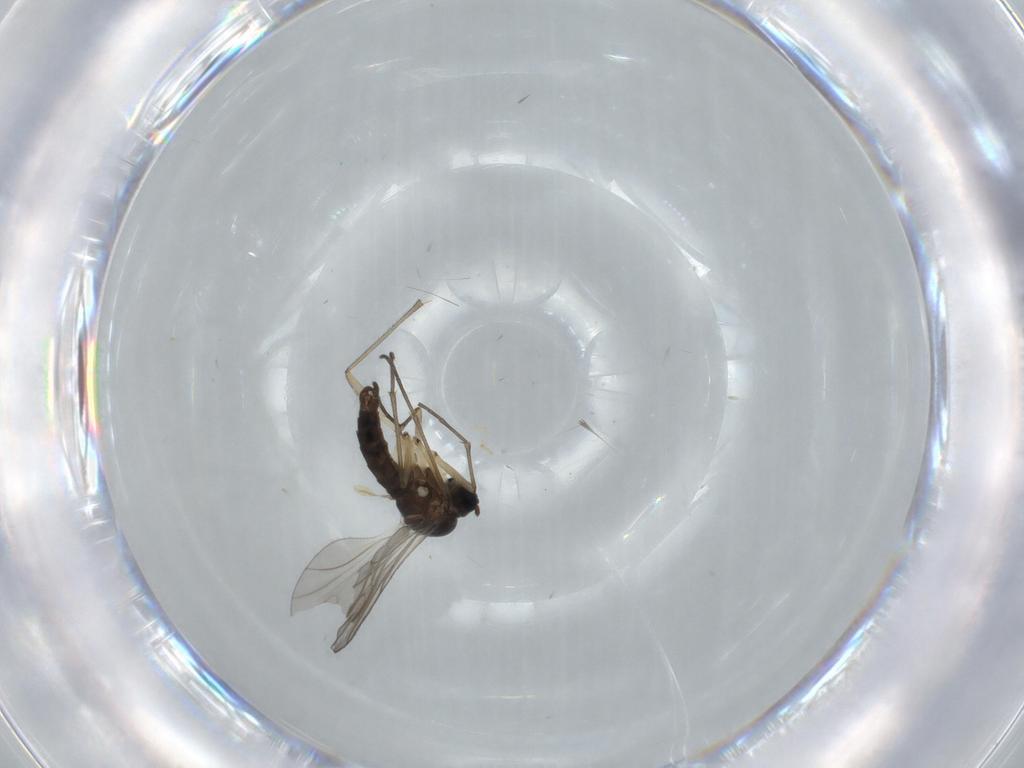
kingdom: Animalia
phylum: Arthropoda
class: Insecta
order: Diptera
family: Sciaridae
